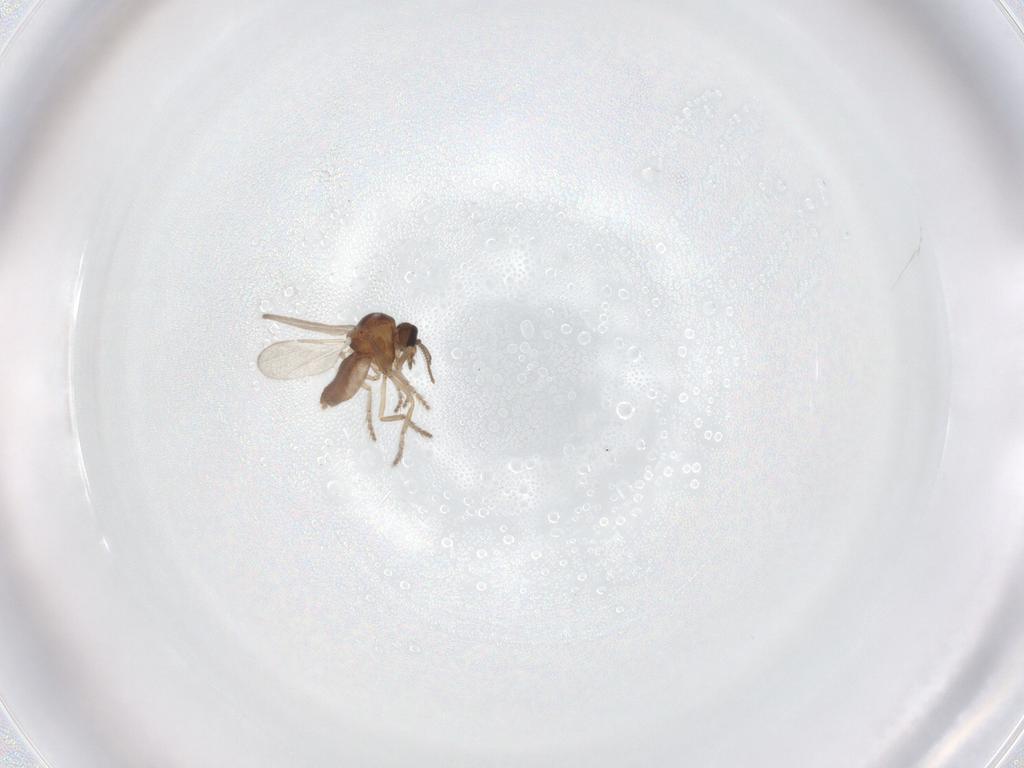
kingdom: Animalia
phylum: Arthropoda
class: Insecta
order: Diptera
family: Ceratopogonidae
